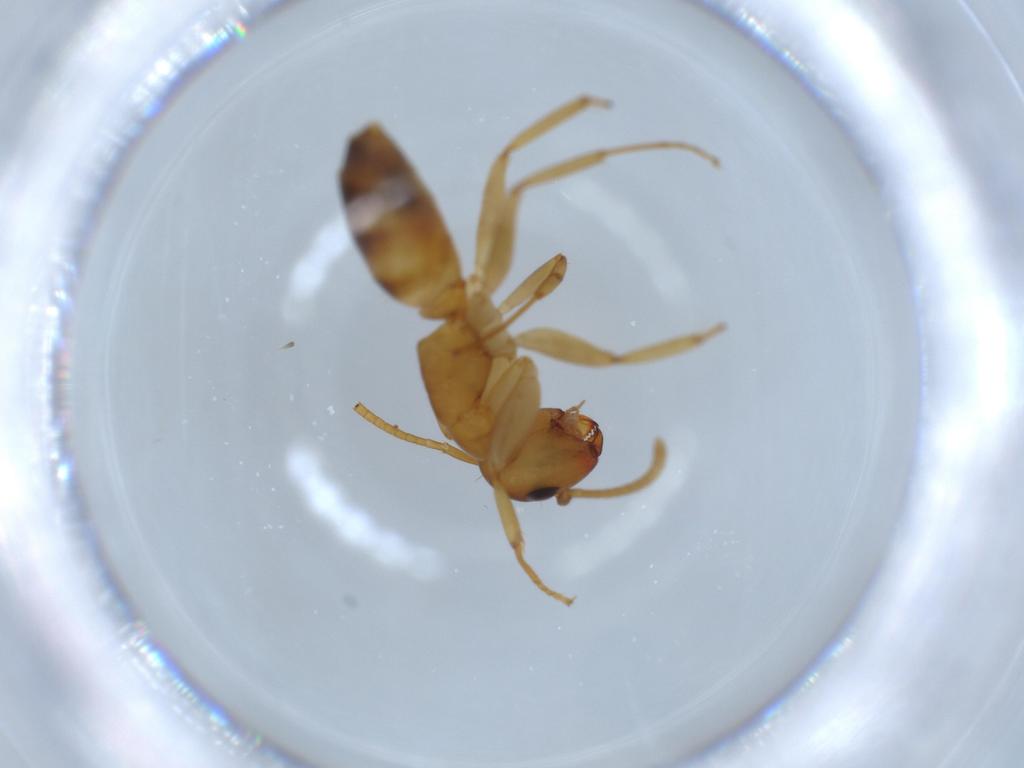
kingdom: Animalia
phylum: Arthropoda
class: Insecta
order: Hymenoptera
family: Formicidae
